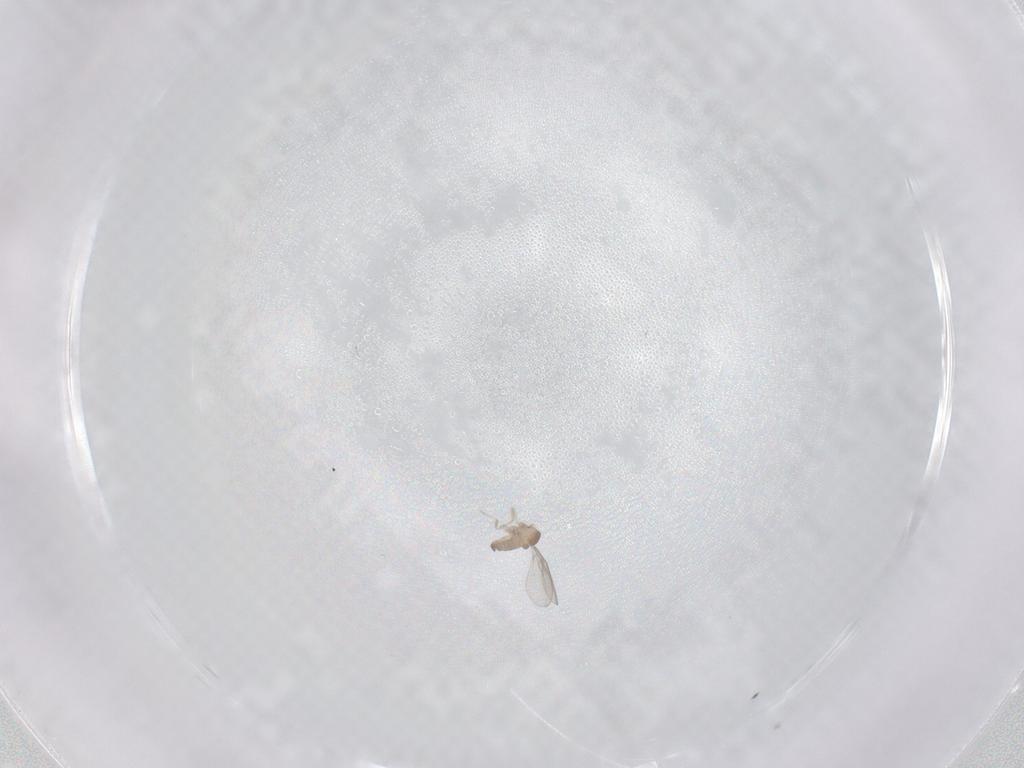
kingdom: Animalia
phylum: Arthropoda
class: Insecta
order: Diptera
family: Cecidomyiidae
